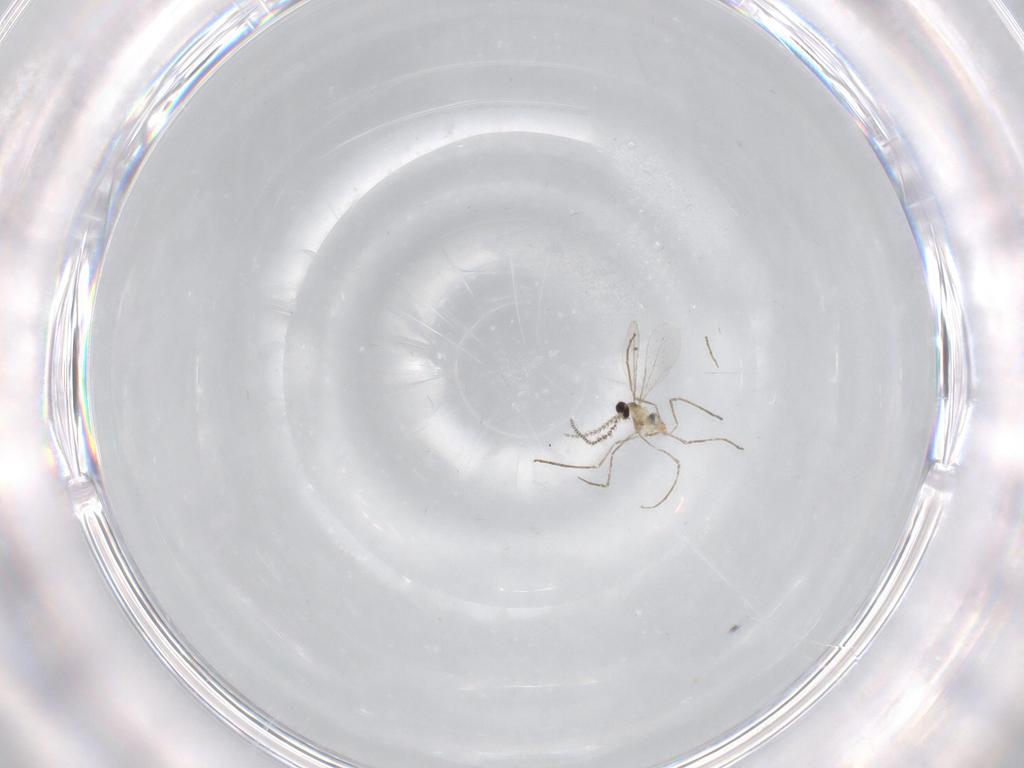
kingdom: Animalia
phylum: Arthropoda
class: Insecta
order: Diptera
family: Cecidomyiidae
